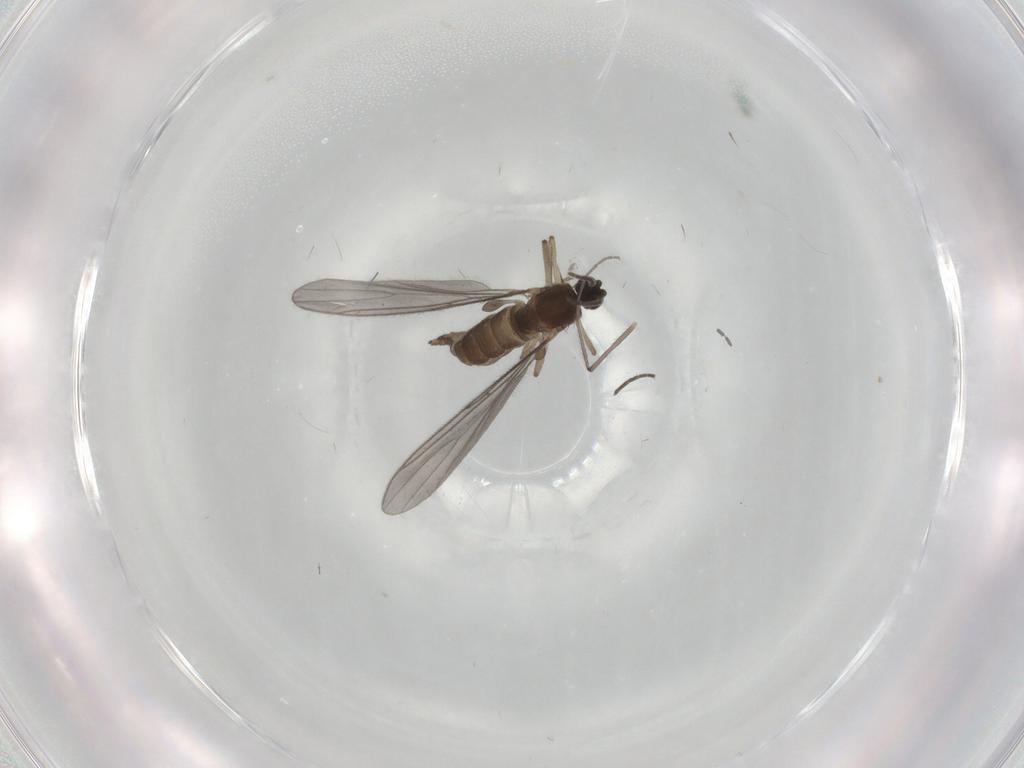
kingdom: Animalia
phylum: Arthropoda
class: Insecta
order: Diptera
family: Sciaridae
